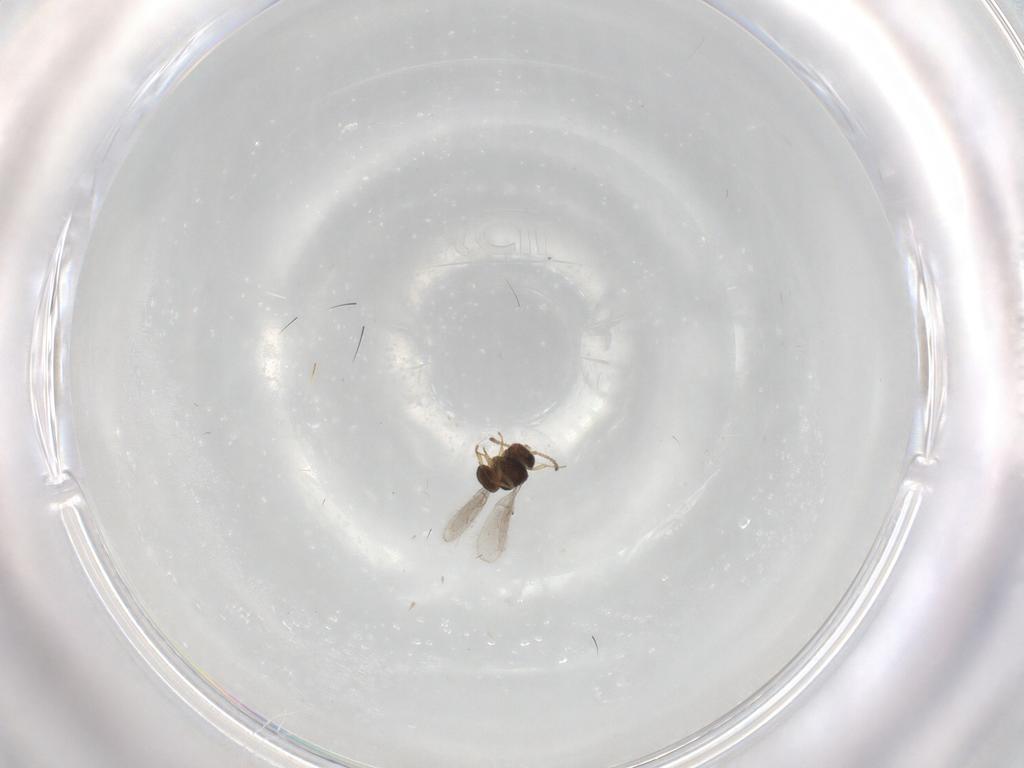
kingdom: Animalia
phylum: Arthropoda
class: Insecta
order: Hymenoptera
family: Scelionidae
